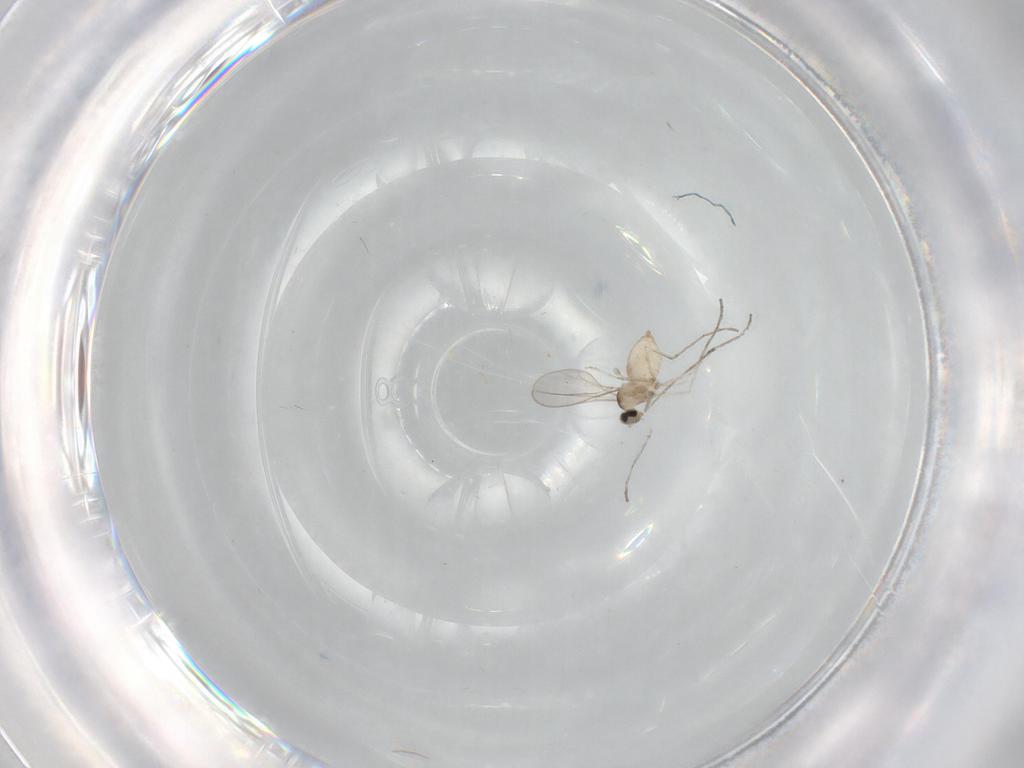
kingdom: Animalia
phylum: Arthropoda
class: Insecta
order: Diptera
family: Cecidomyiidae
